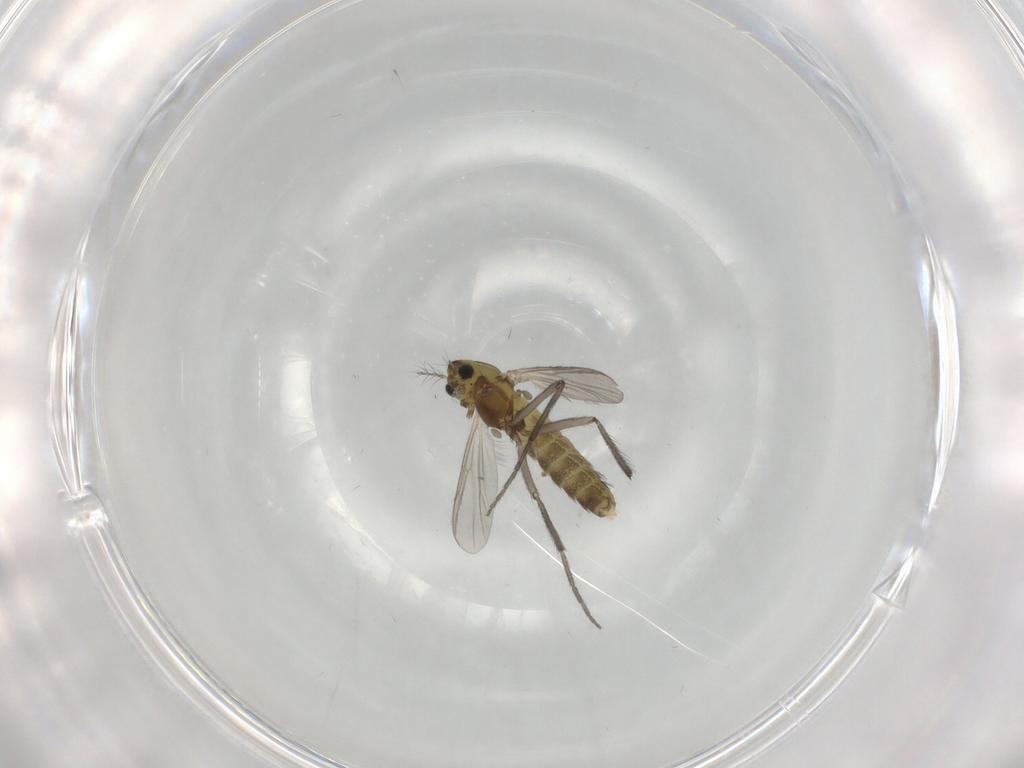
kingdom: Animalia
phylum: Arthropoda
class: Insecta
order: Diptera
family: Chironomidae
